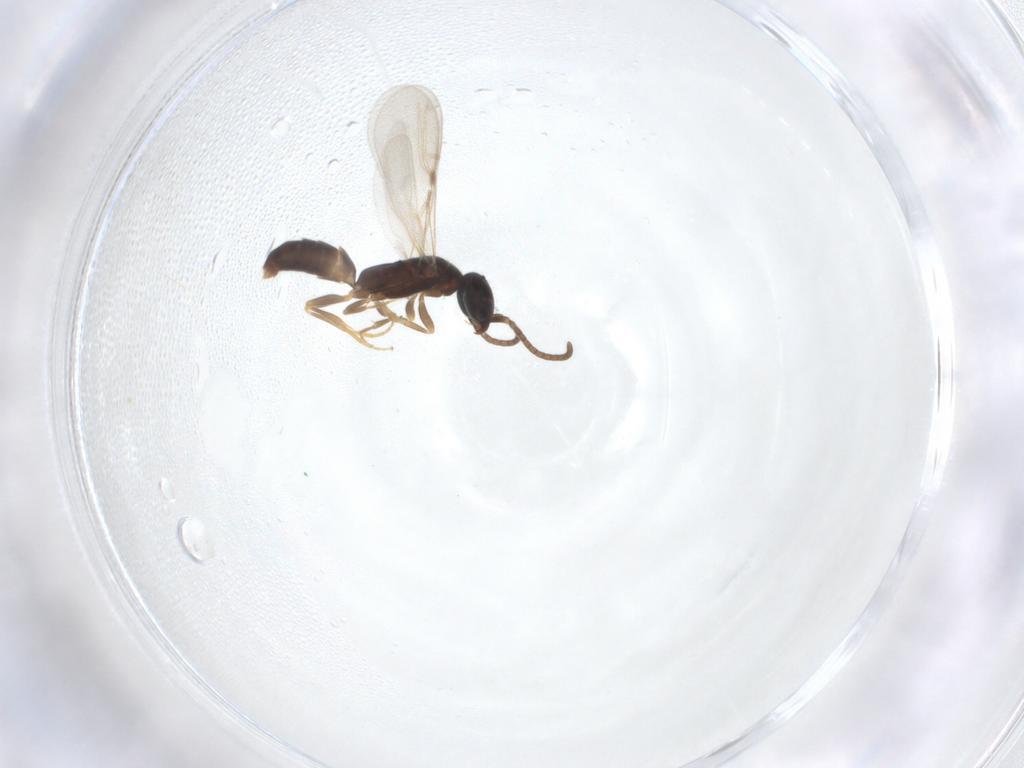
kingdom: Animalia
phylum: Arthropoda
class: Insecta
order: Hymenoptera
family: Bethylidae
